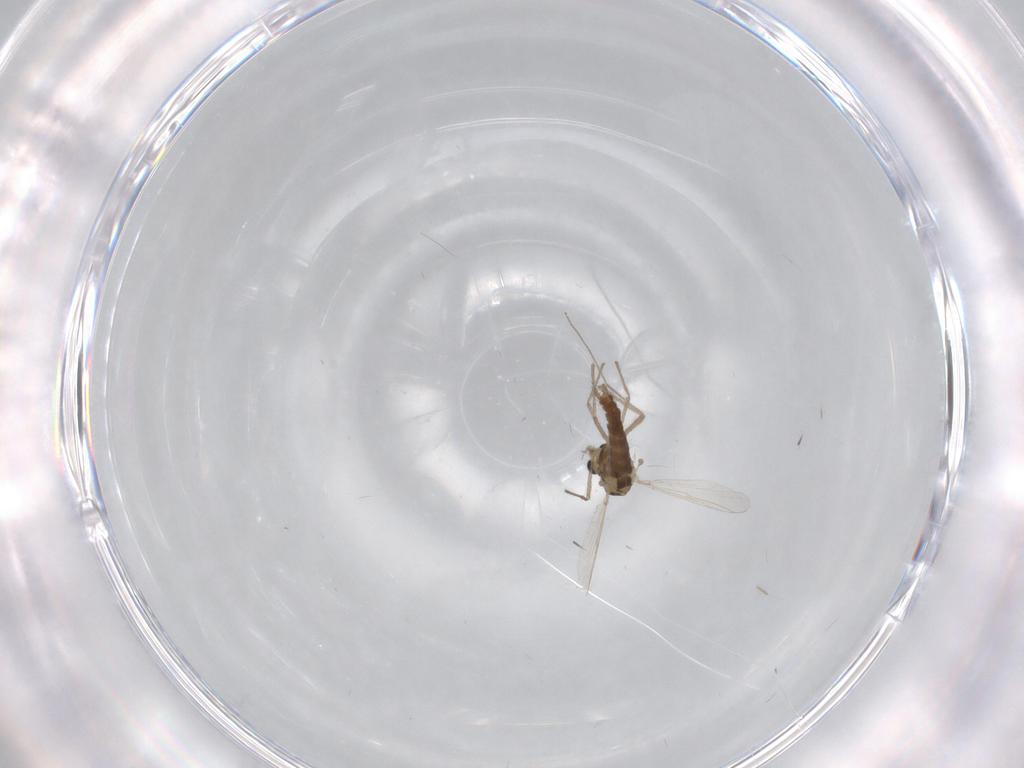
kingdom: Animalia
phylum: Arthropoda
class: Insecta
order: Diptera
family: Chironomidae
